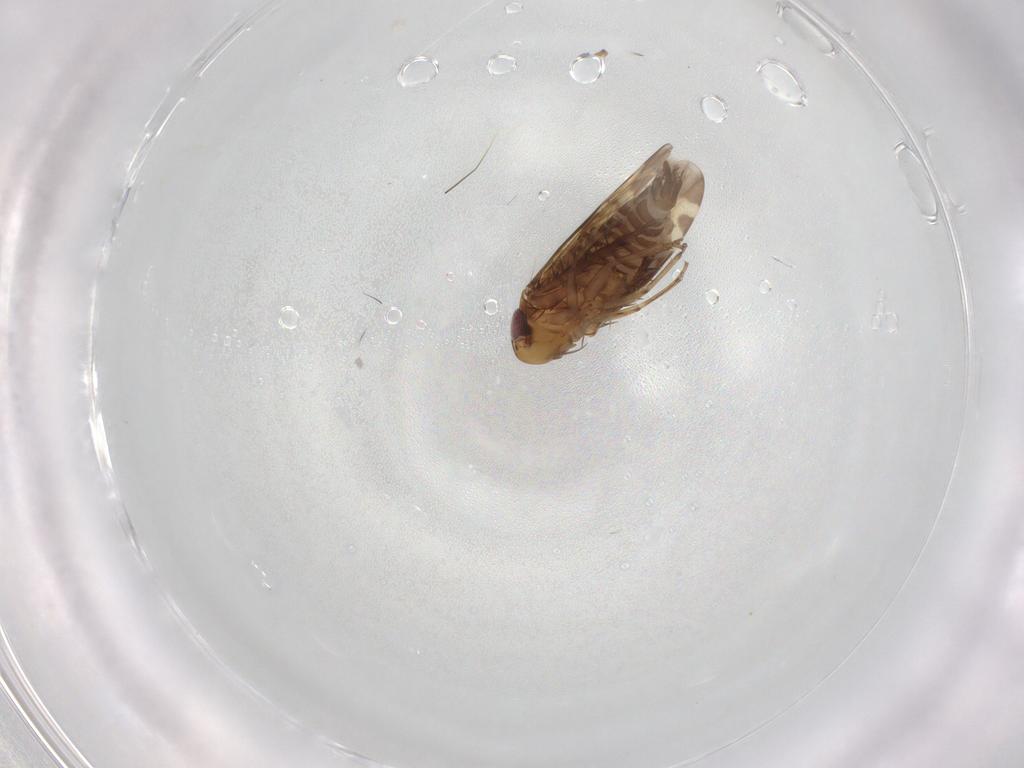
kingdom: Animalia
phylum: Arthropoda
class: Insecta
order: Hemiptera
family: Cicadellidae
